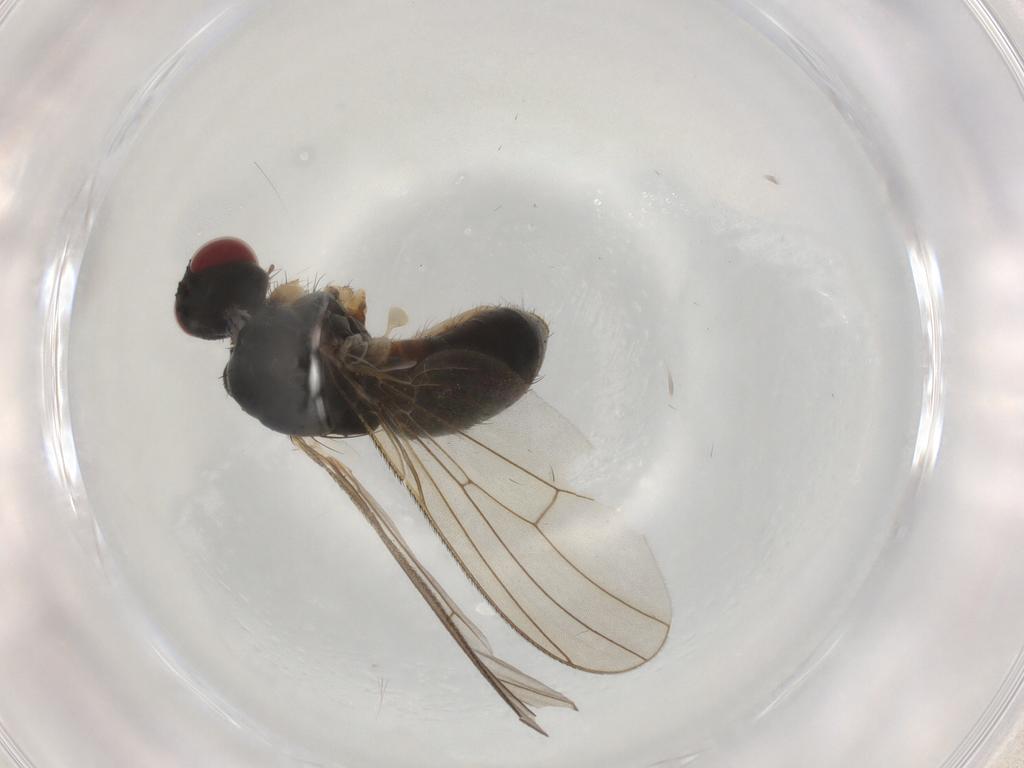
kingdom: Animalia
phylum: Arthropoda
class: Insecta
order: Diptera
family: Muscidae
